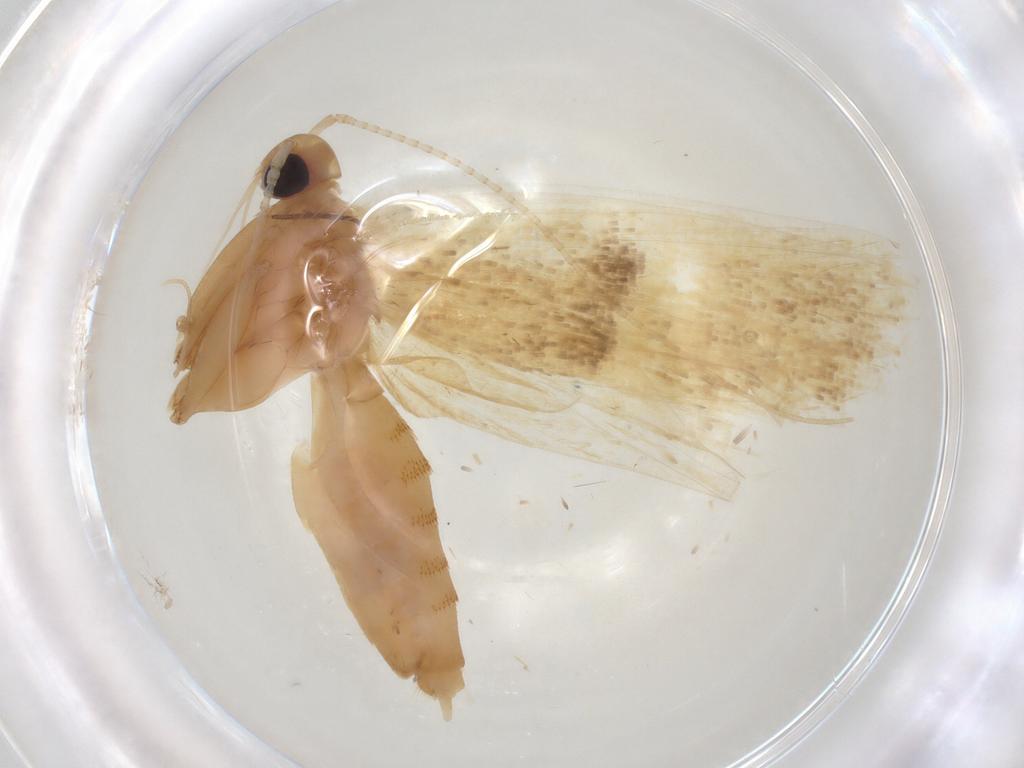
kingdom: Animalia
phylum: Arthropoda
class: Insecta
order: Lepidoptera
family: Lecithoceridae
